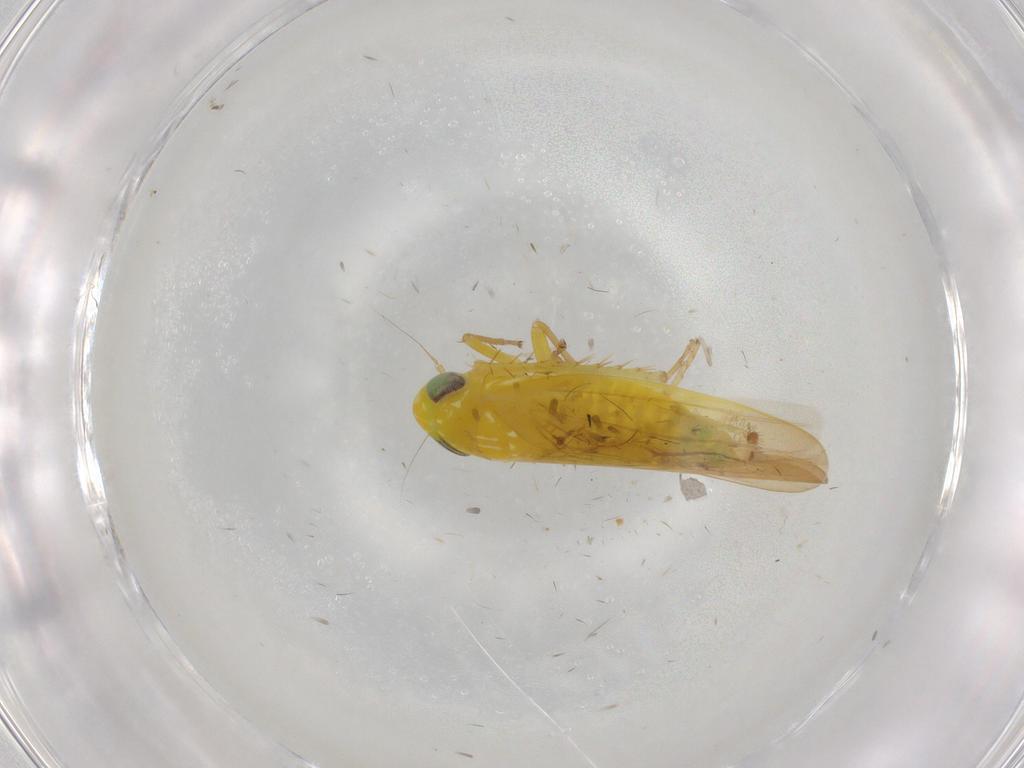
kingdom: Animalia
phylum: Arthropoda
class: Insecta
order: Hemiptera
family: Cicadellidae
